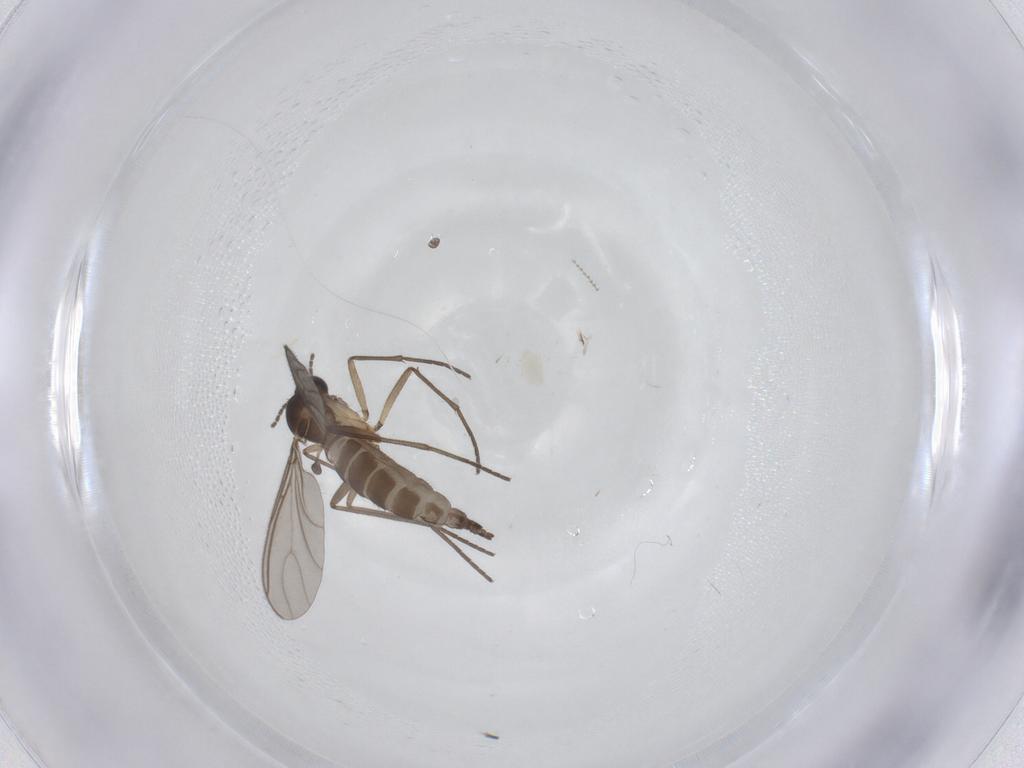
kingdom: Animalia
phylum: Arthropoda
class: Insecta
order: Diptera
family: Sciaridae
